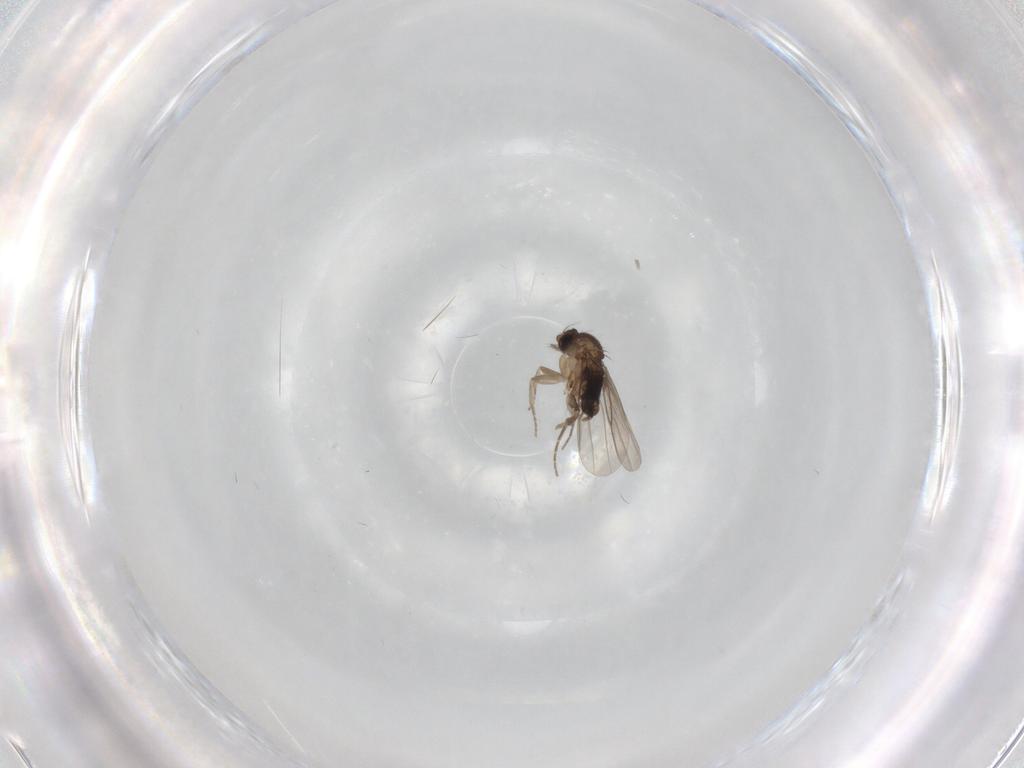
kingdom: Animalia
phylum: Arthropoda
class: Insecta
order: Diptera
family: Phoridae
